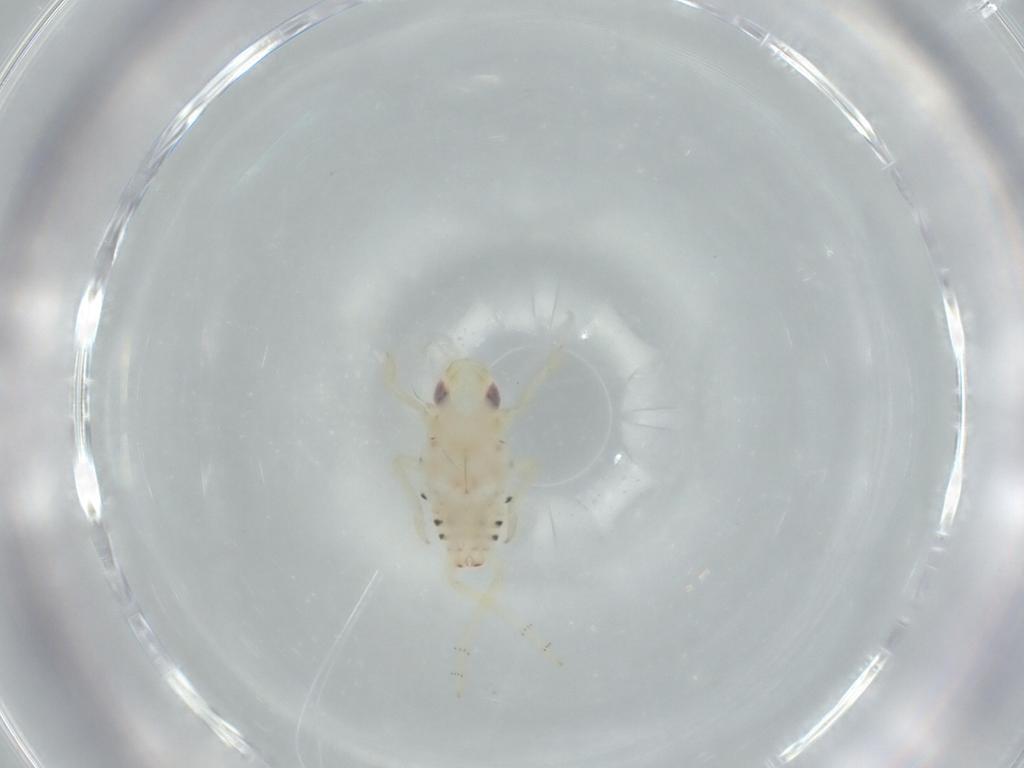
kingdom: Animalia
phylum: Arthropoda
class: Insecta
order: Hemiptera
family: Tropiduchidae
